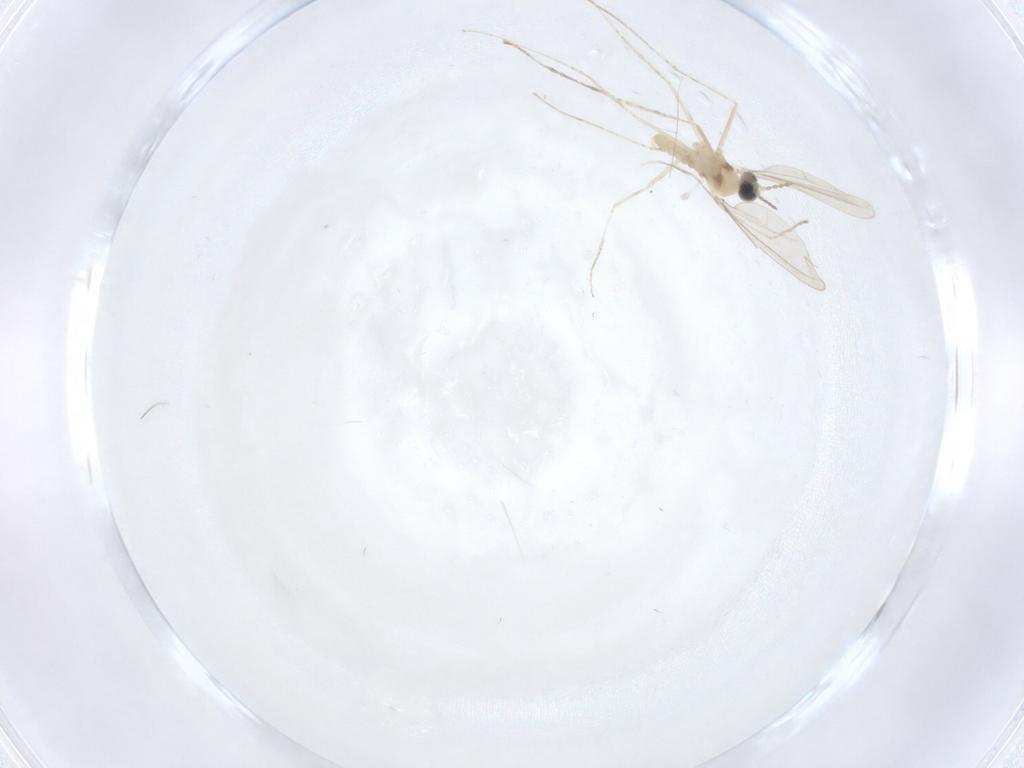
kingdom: Animalia
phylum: Arthropoda
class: Insecta
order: Diptera
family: Cecidomyiidae
